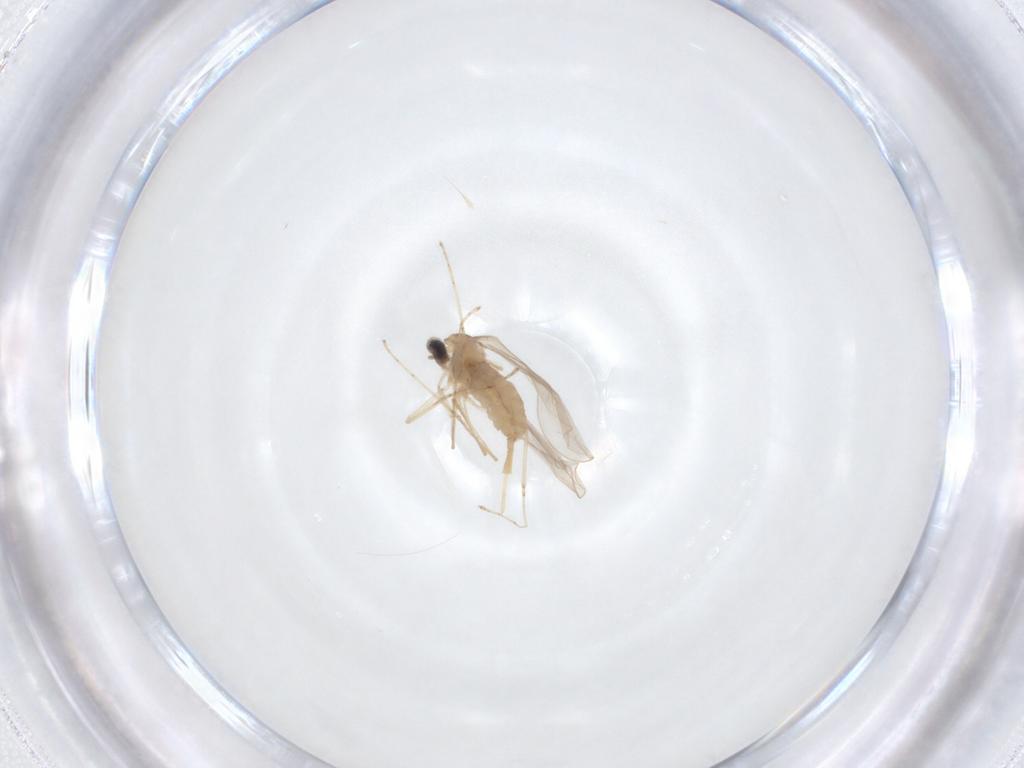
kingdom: Animalia
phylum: Arthropoda
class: Insecta
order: Diptera
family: Cecidomyiidae
